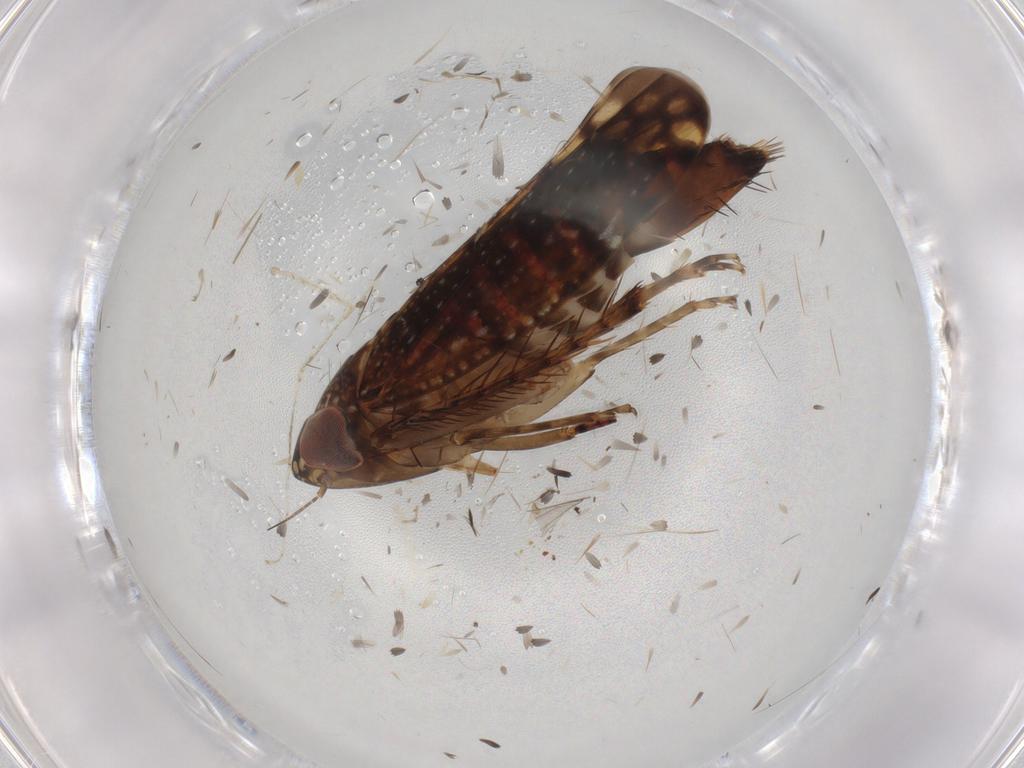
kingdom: Animalia
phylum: Arthropoda
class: Insecta
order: Hemiptera
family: Cicadellidae
